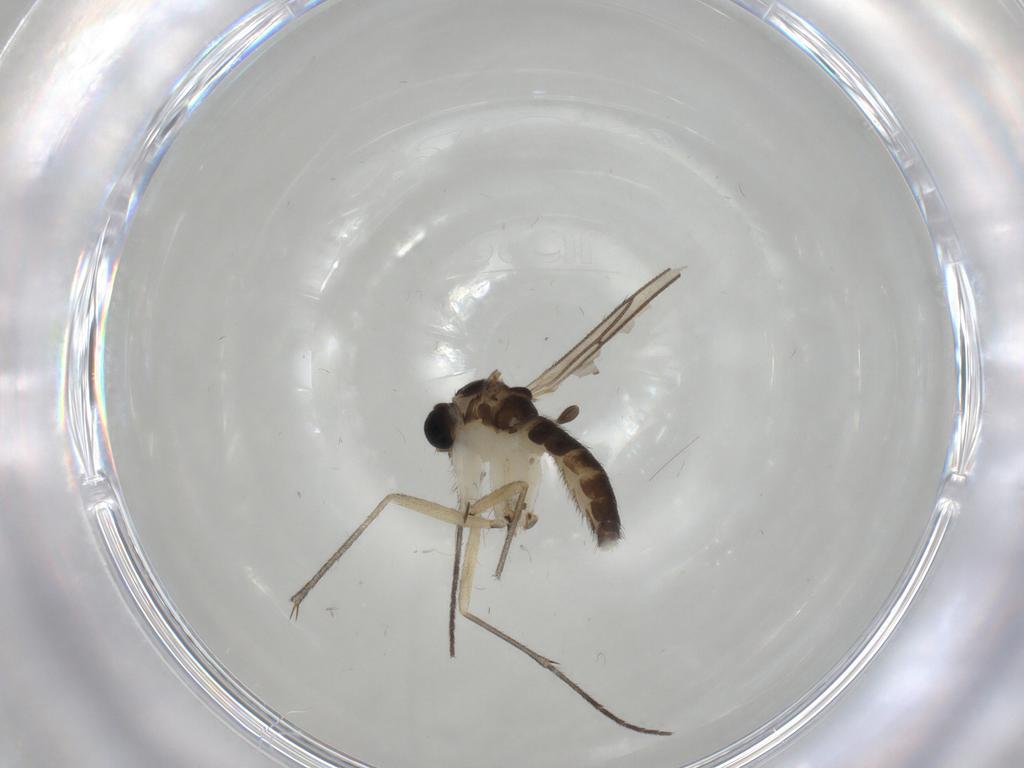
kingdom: Animalia
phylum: Arthropoda
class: Insecta
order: Diptera
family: Sciaridae
